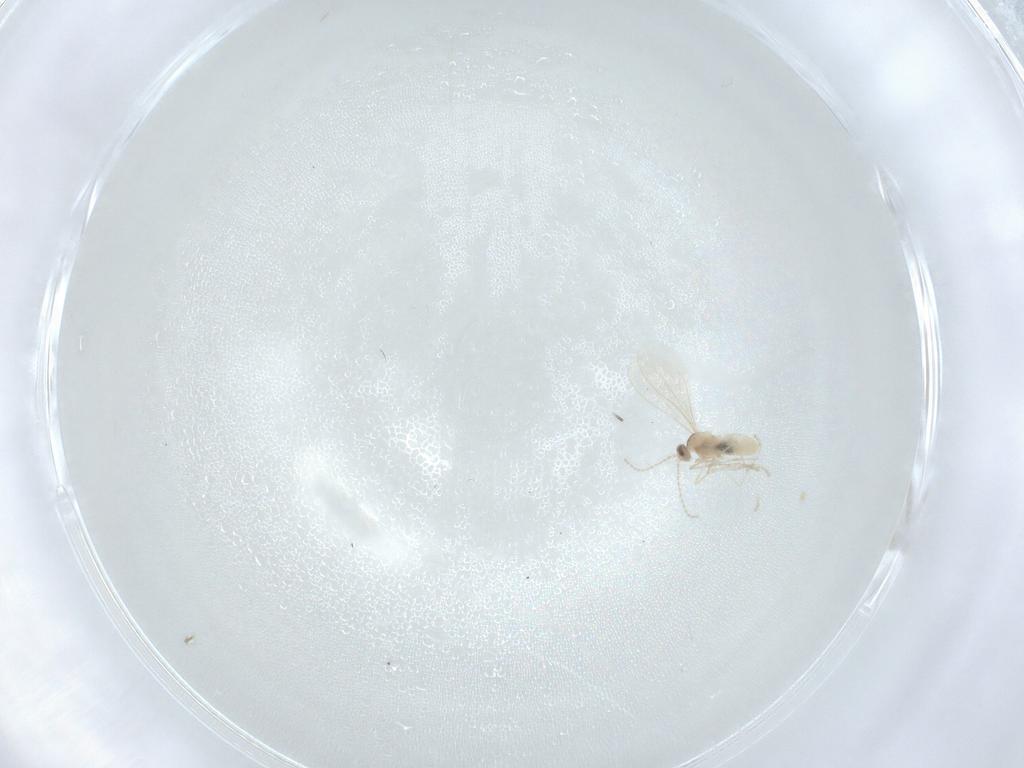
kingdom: Animalia
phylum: Arthropoda
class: Insecta
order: Diptera
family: Cecidomyiidae
